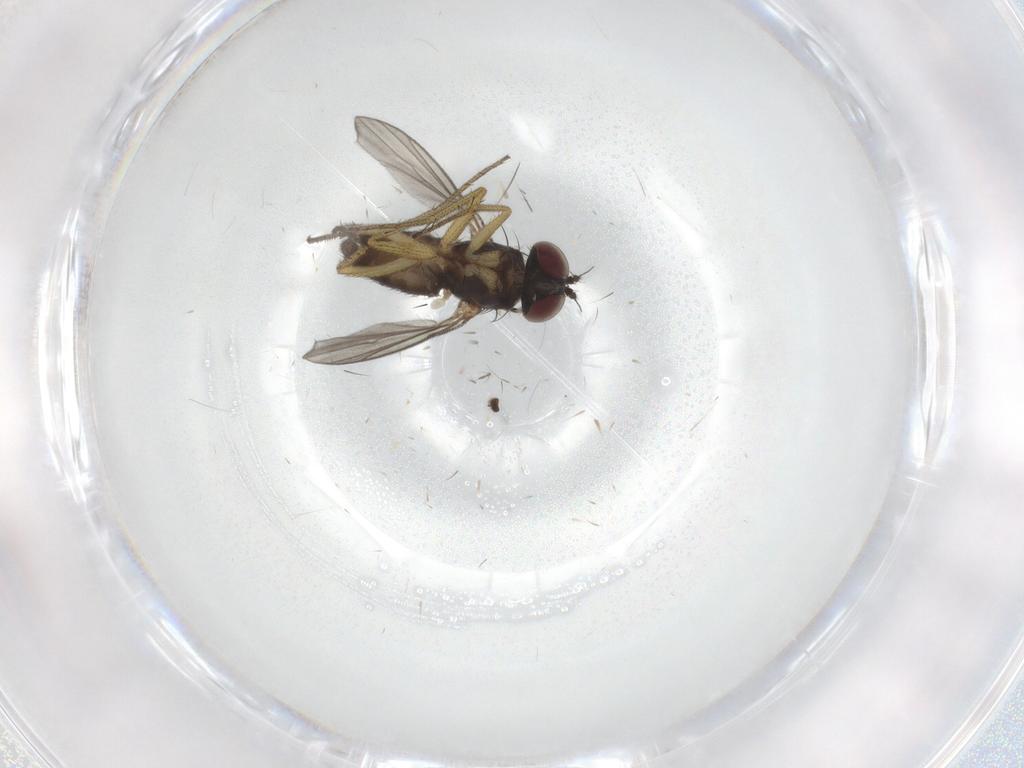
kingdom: Animalia
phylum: Arthropoda
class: Insecta
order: Diptera
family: Dolichopodidae
